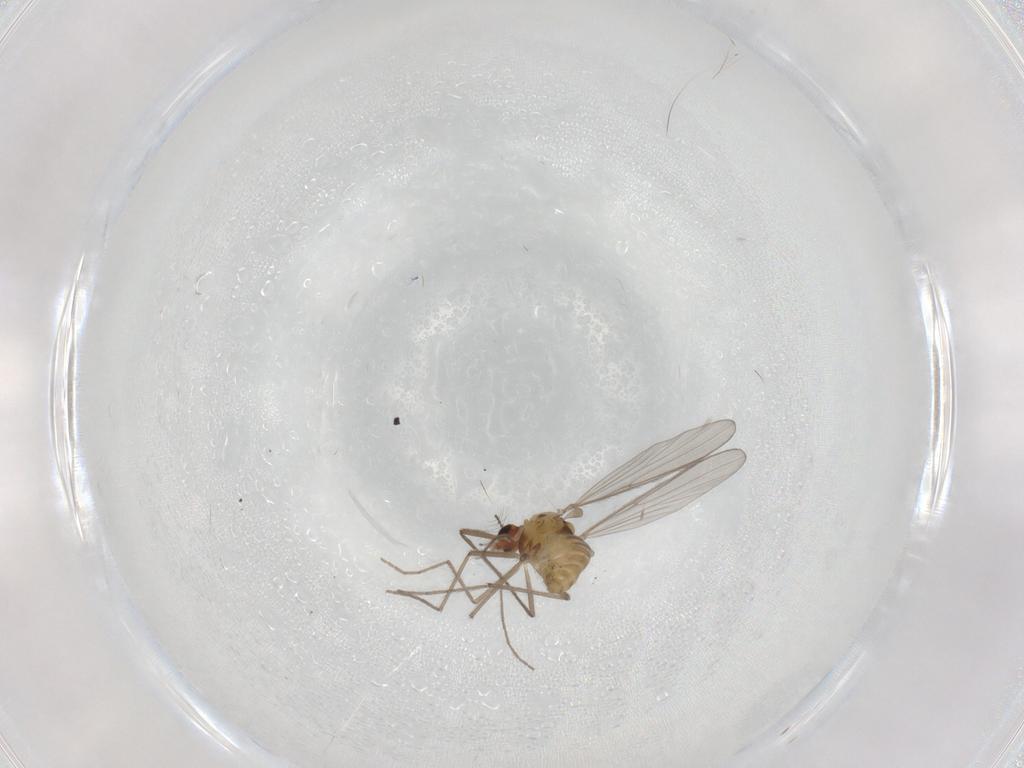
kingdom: Animalia
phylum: Arthropoda
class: Insecta
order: Diptera
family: Chironomidae
